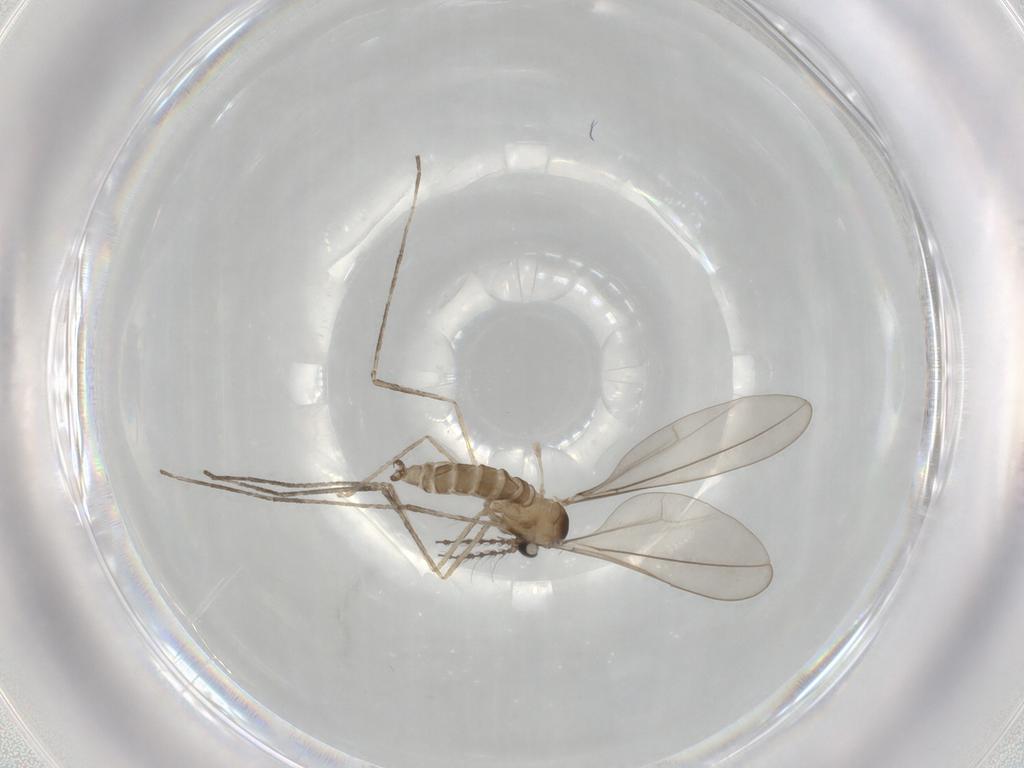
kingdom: Animalia
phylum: Arthropoda
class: Insecta
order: Diptera
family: Cecidomyiidae
